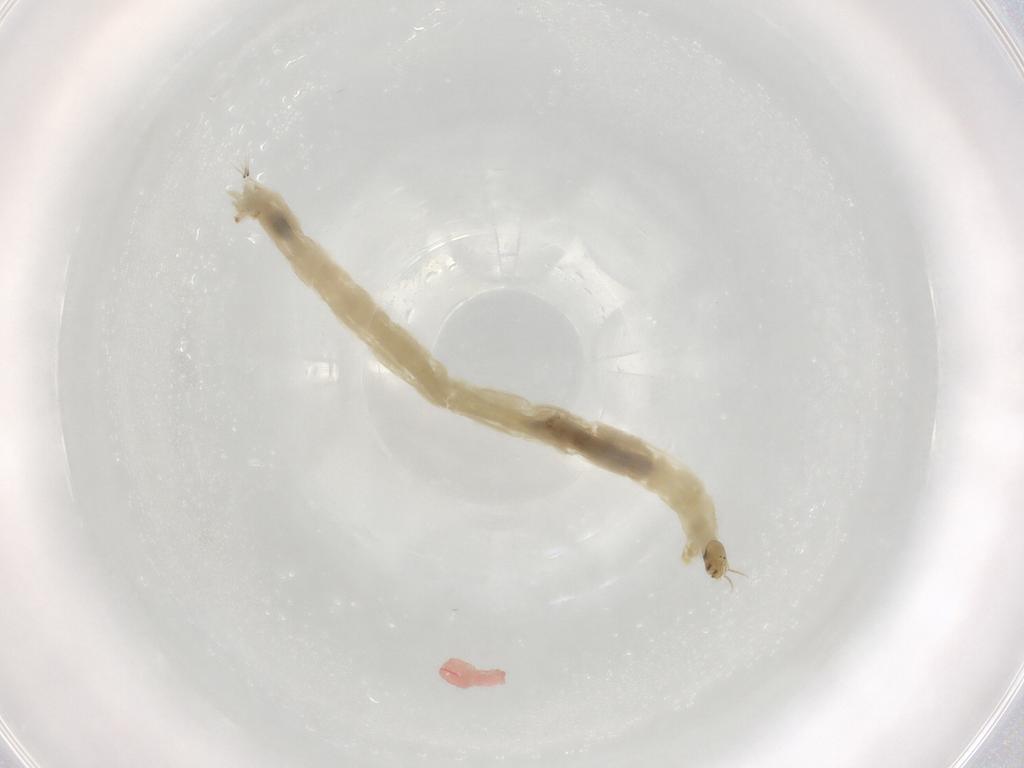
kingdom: Animalia
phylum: Arthropoda
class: Insecta
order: Diptera
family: Chironomidae
